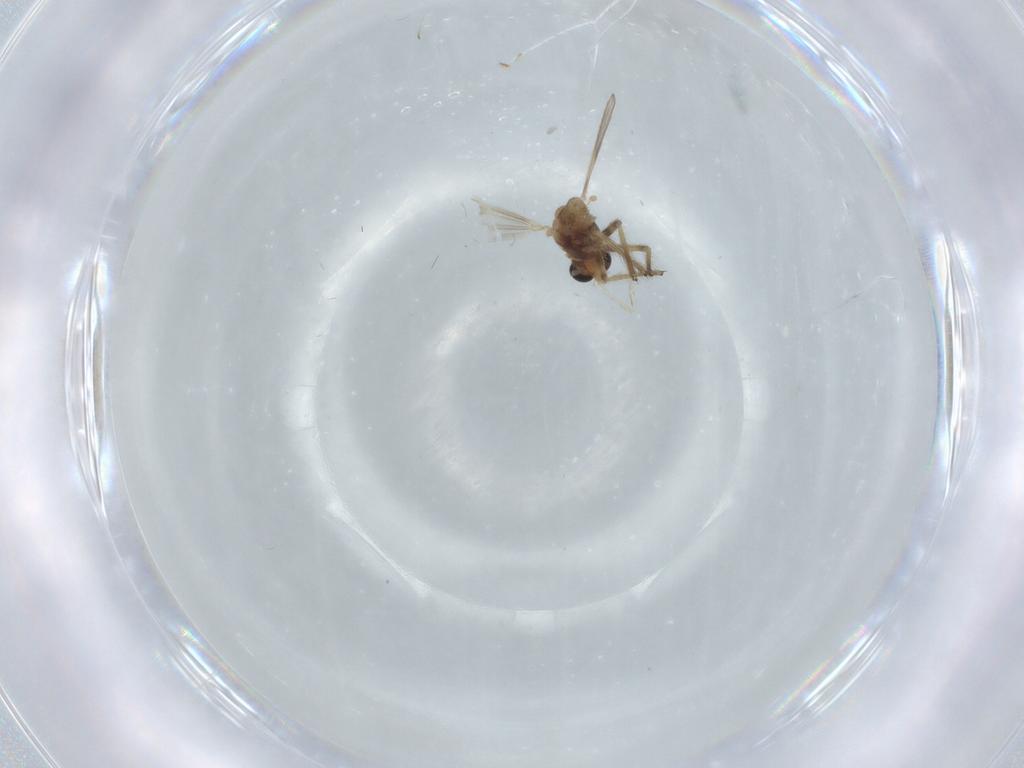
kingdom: Animalia
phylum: Arthropoda
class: Insecta
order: Diptera
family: Chironomidae
